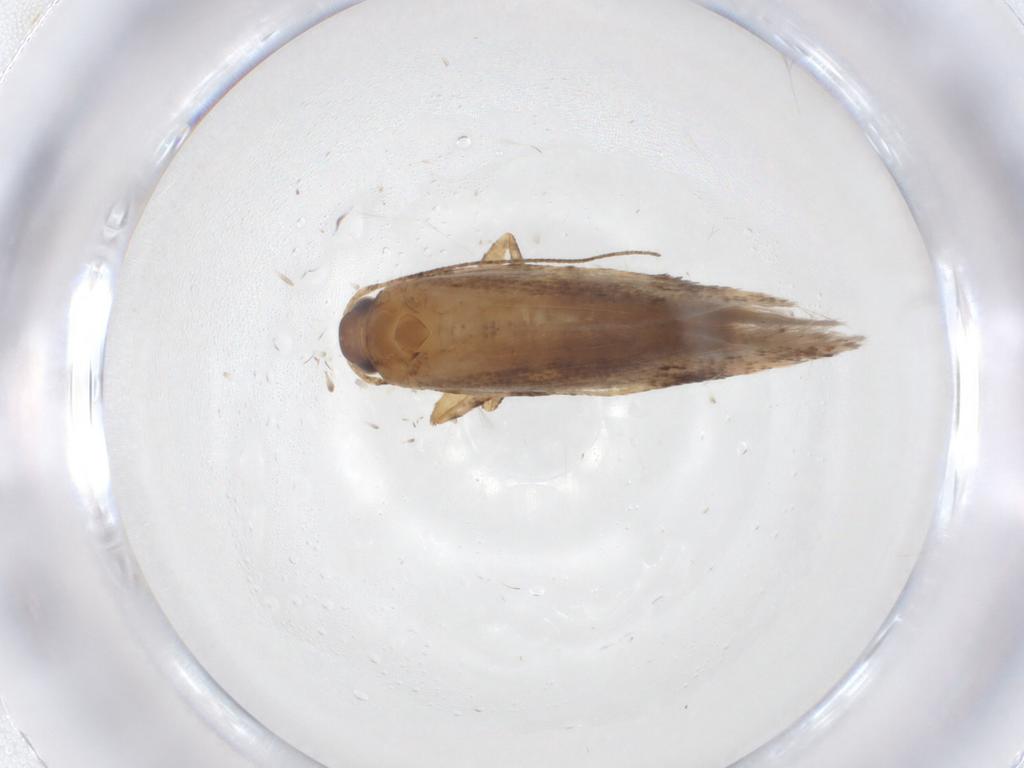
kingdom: Animalia
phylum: Arthropoda
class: Insecta
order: Lepidoptera
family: Gelechiidae
